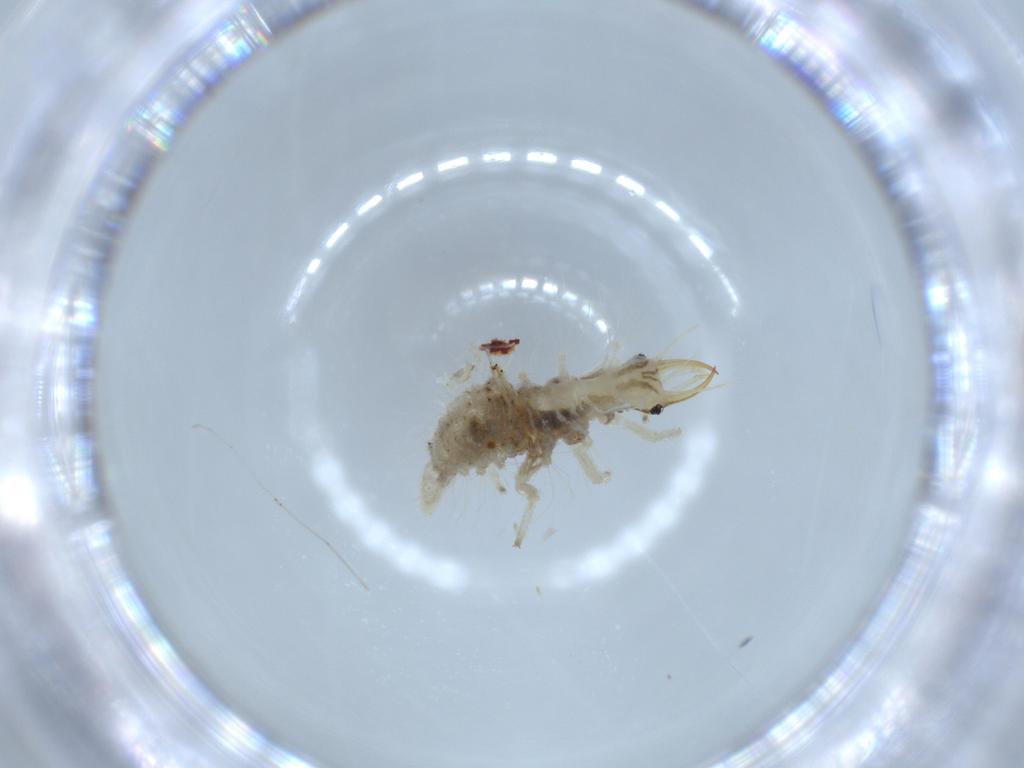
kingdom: Animalia
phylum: Arthropoda
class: Insecta
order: Neuroptera
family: Chrysopidae
